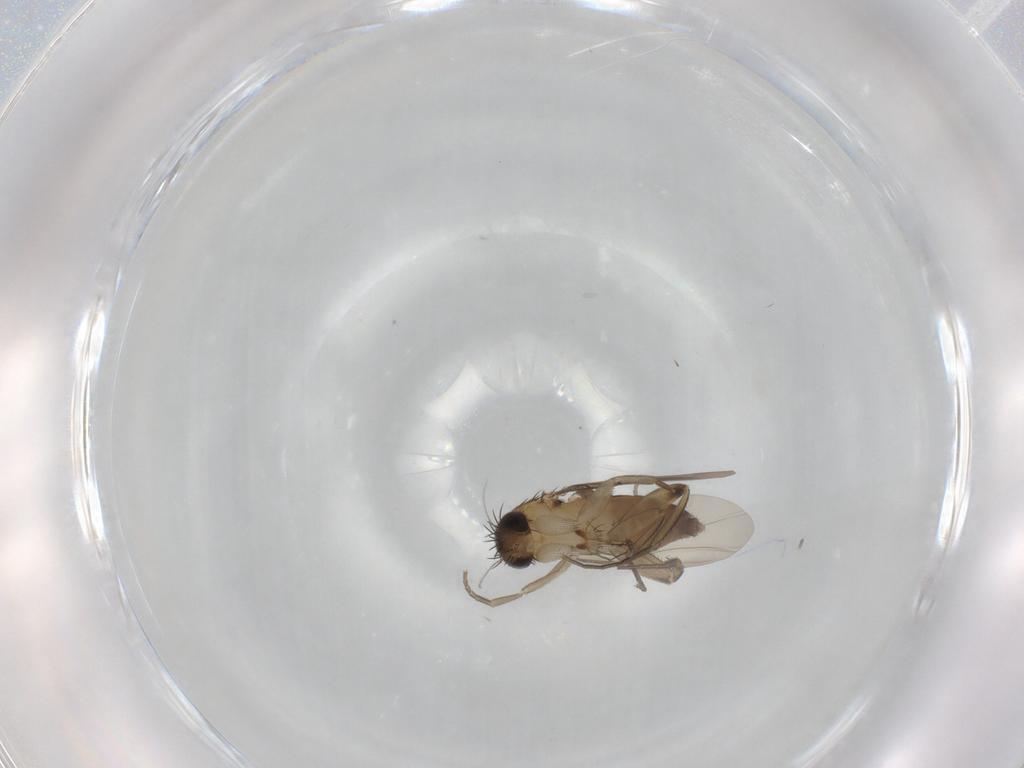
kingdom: Animalia
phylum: Arthropoda
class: Insecta
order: Diptera
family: Phoridae
